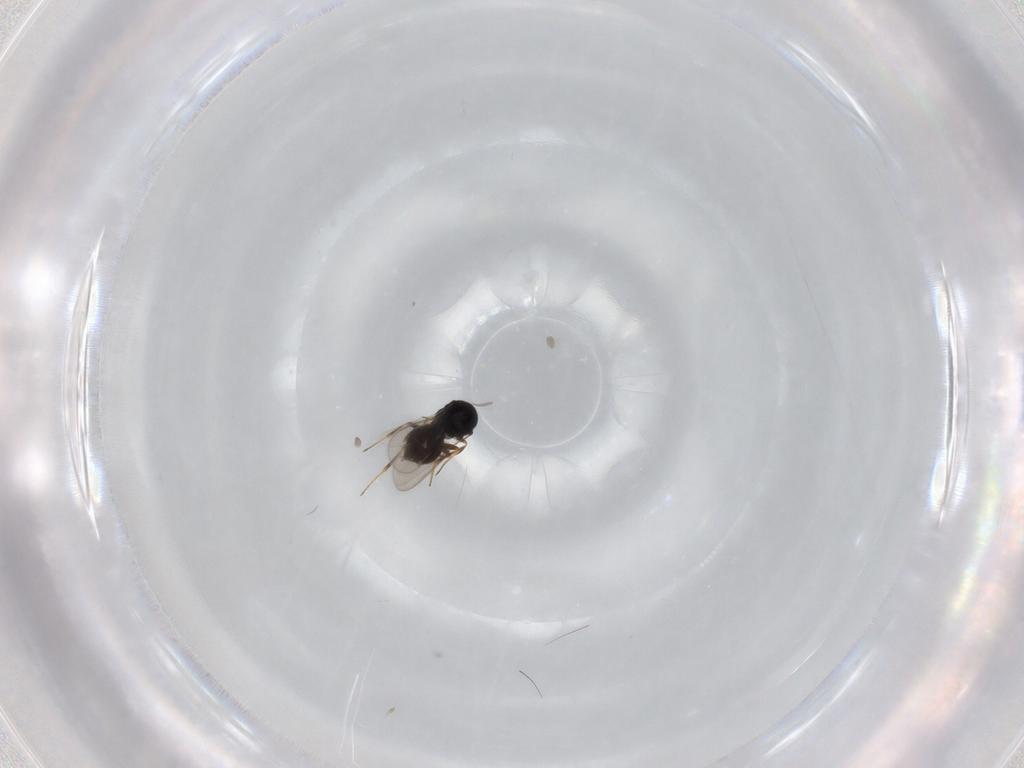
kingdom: Animalia
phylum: Arthropoda
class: Insecta
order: Hymenoptera
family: Scelionidae
